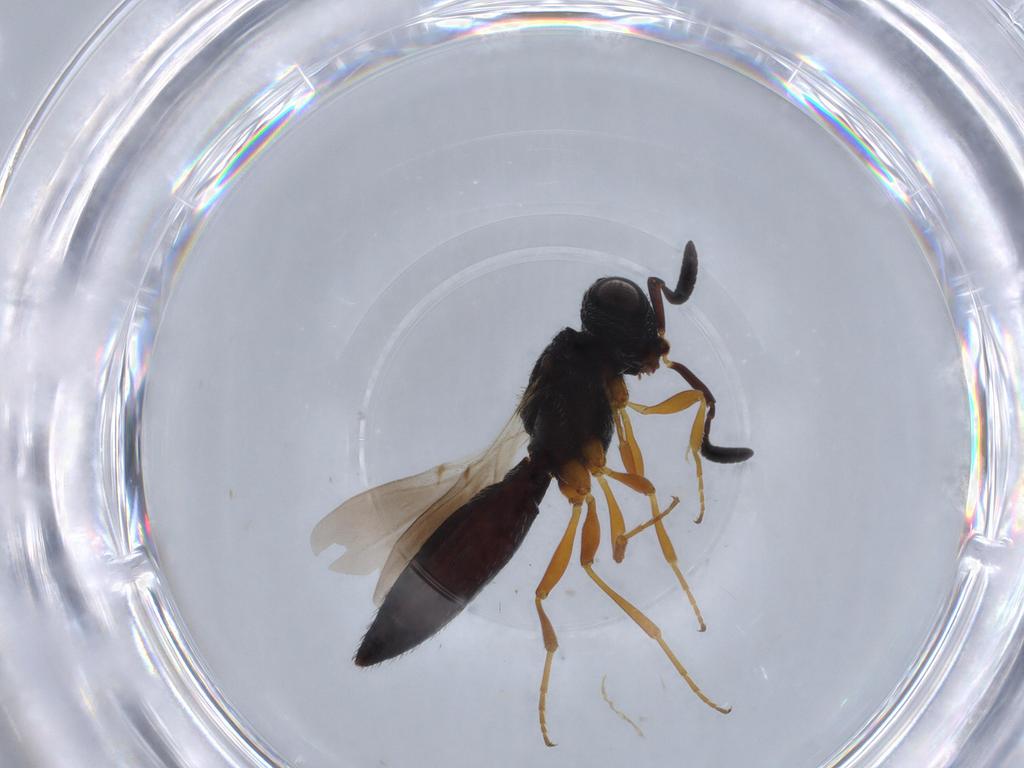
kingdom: Animalia
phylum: Arthropoda
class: Insecta
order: Hymenoptera
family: Scelionidae
